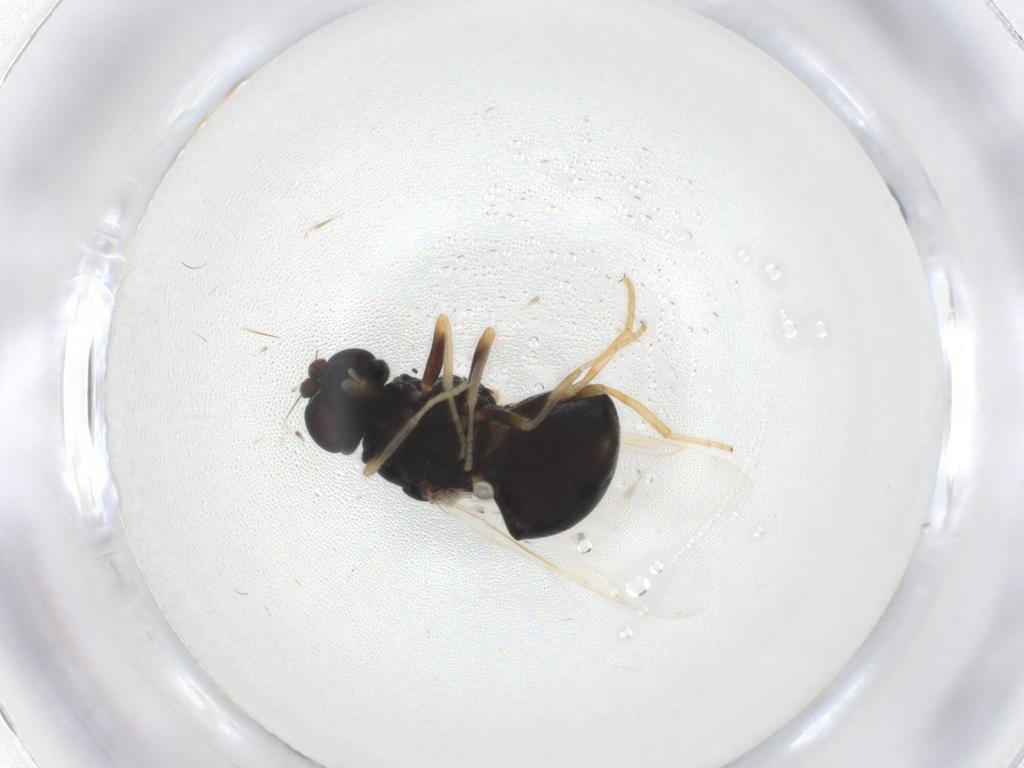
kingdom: Animalia
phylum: Arthropoda
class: Insecta
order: Diptera
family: Stratiomyidae
